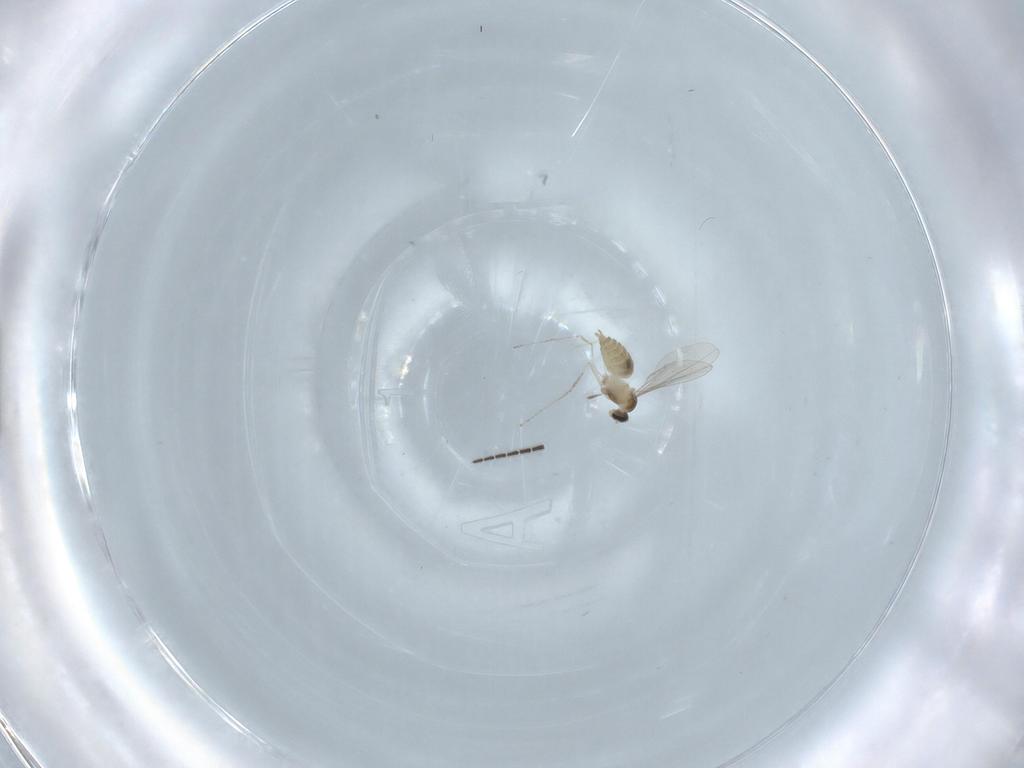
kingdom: Animalia
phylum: Arthropoda
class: Insecta
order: Diptera
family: Cecidomyiidae
